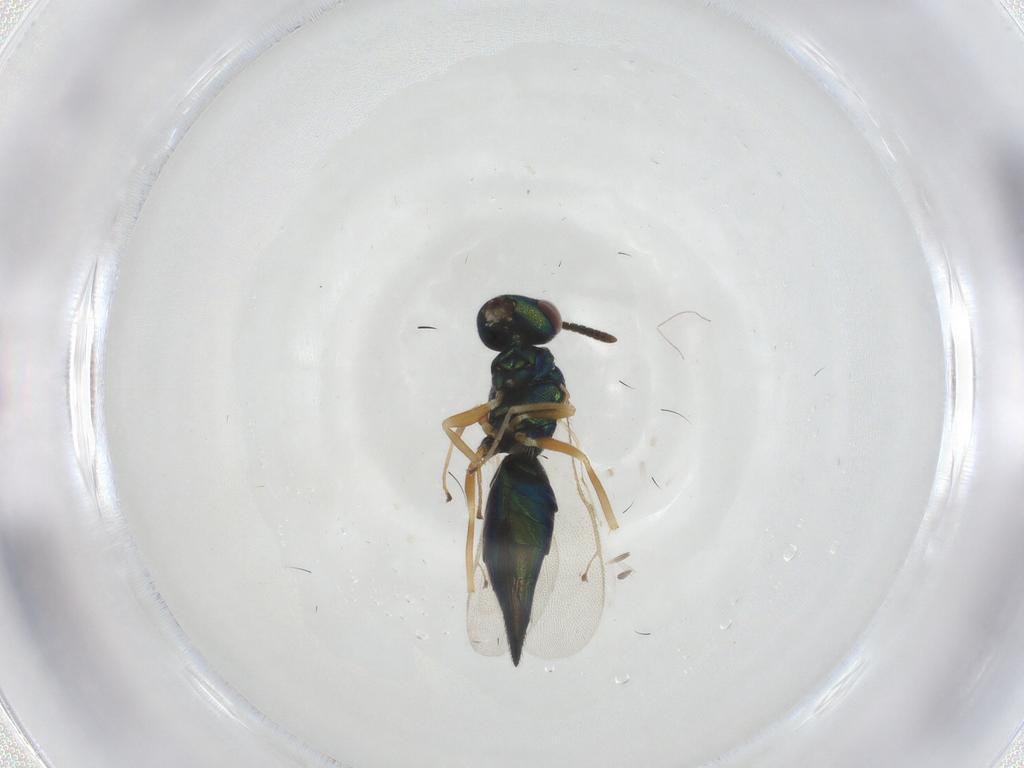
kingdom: Animalia
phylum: Arthropoda
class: Insecta
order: Hymenoptera
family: Pteromalidae
